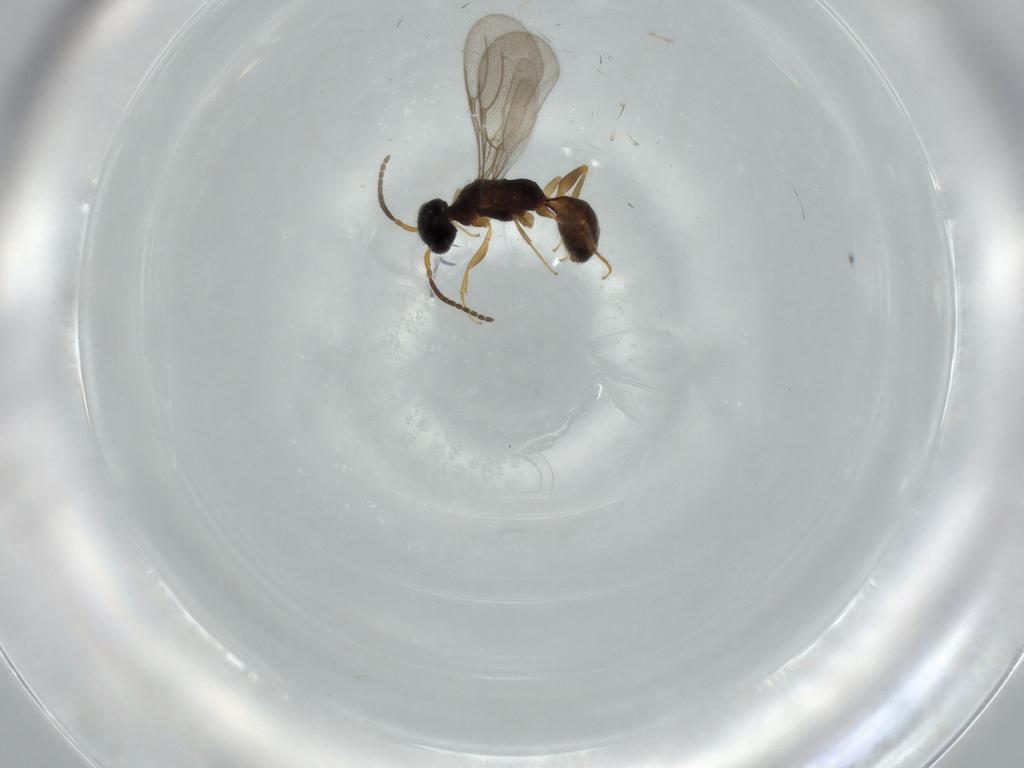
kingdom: Animalia
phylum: Arthropoda
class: Insecta
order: Hymenoptera
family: Bethylidae
